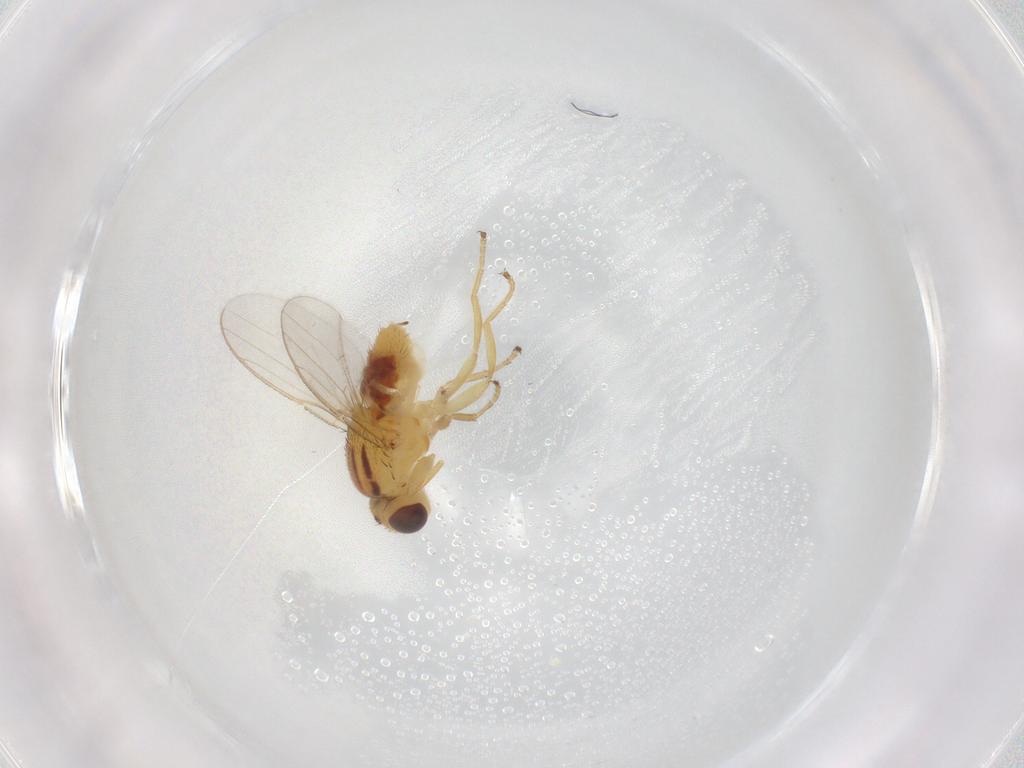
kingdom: Animalia
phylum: Arthropoda
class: Insecta
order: Diptera
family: Chloropidae
